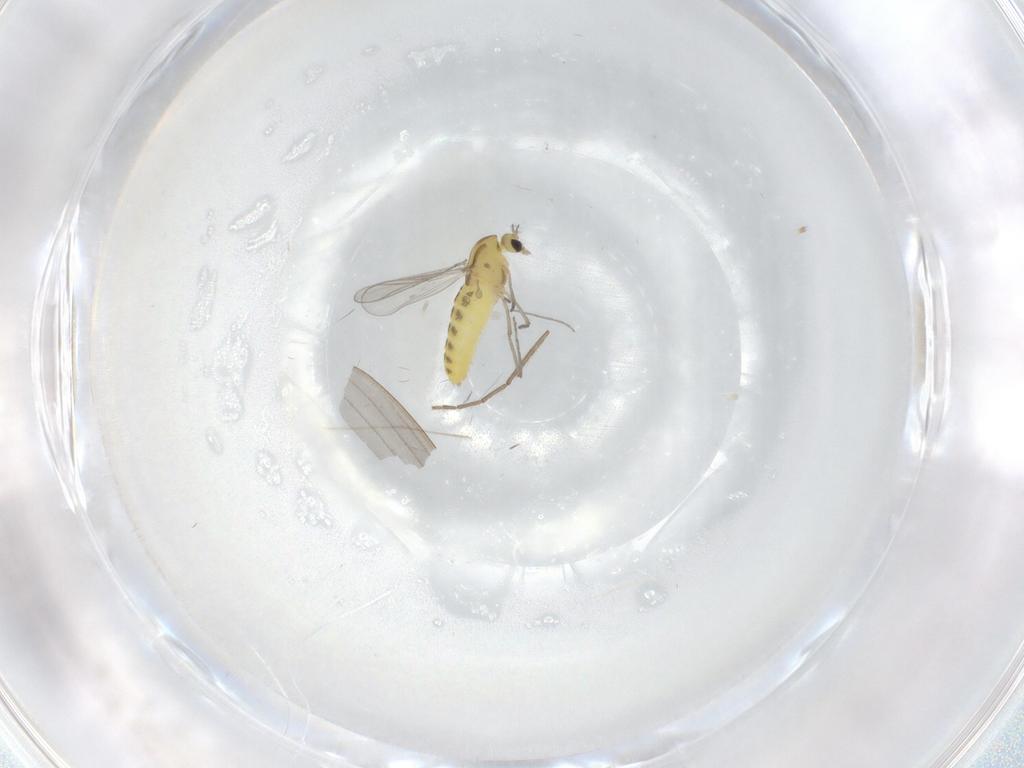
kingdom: Animalia
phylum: Arthropoda
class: Insecta
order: Diptera
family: Chironomidae
